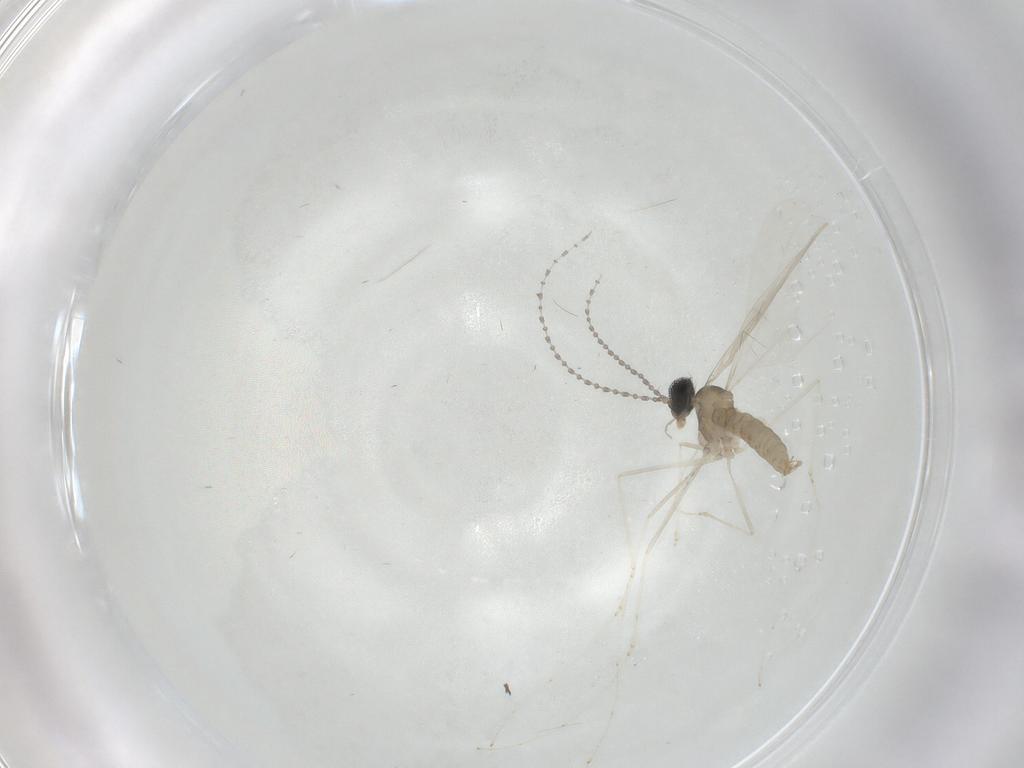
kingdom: Animalia
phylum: Arthropoda
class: Insecta
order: Diptera
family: Cecidomyiidae
